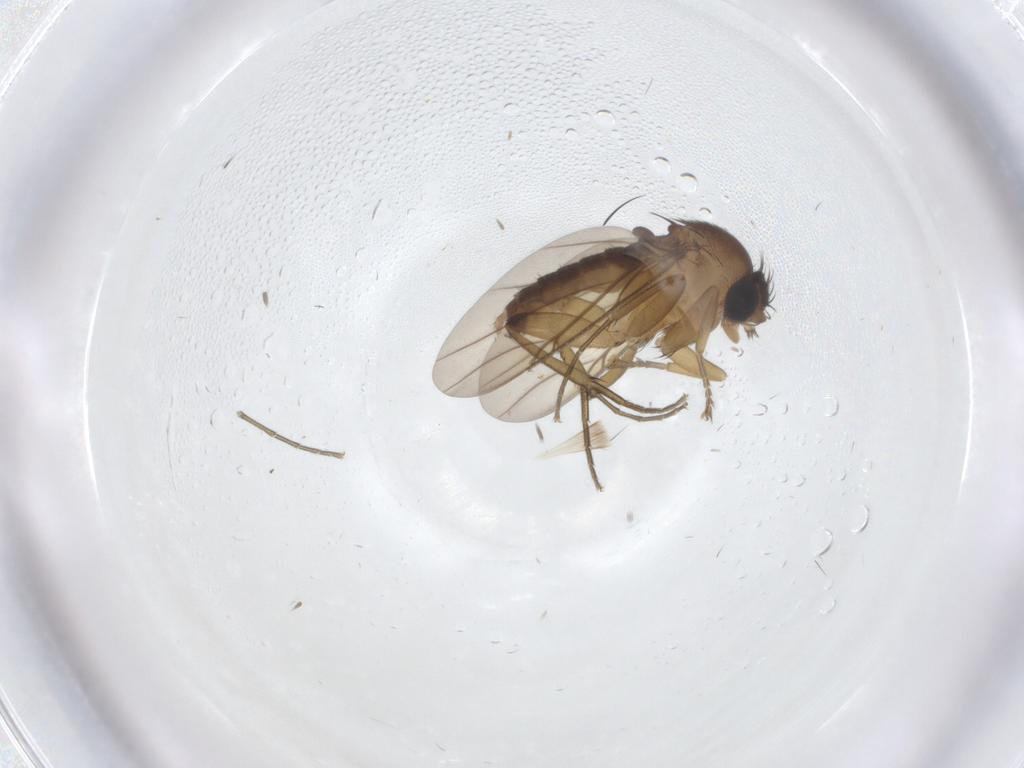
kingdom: Animalia
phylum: Arthropoda
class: Insecta
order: Diptera
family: Phoridae
